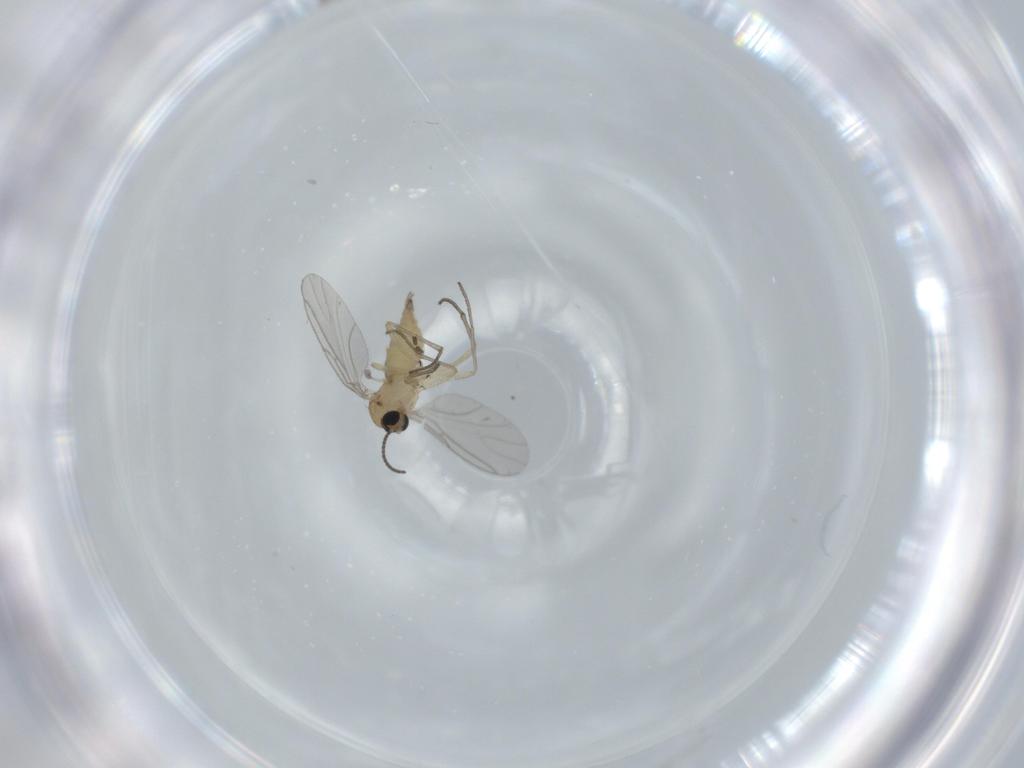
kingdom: Animalia
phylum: Arthropoda
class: Insecta
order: Diptera
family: Sciaridae
